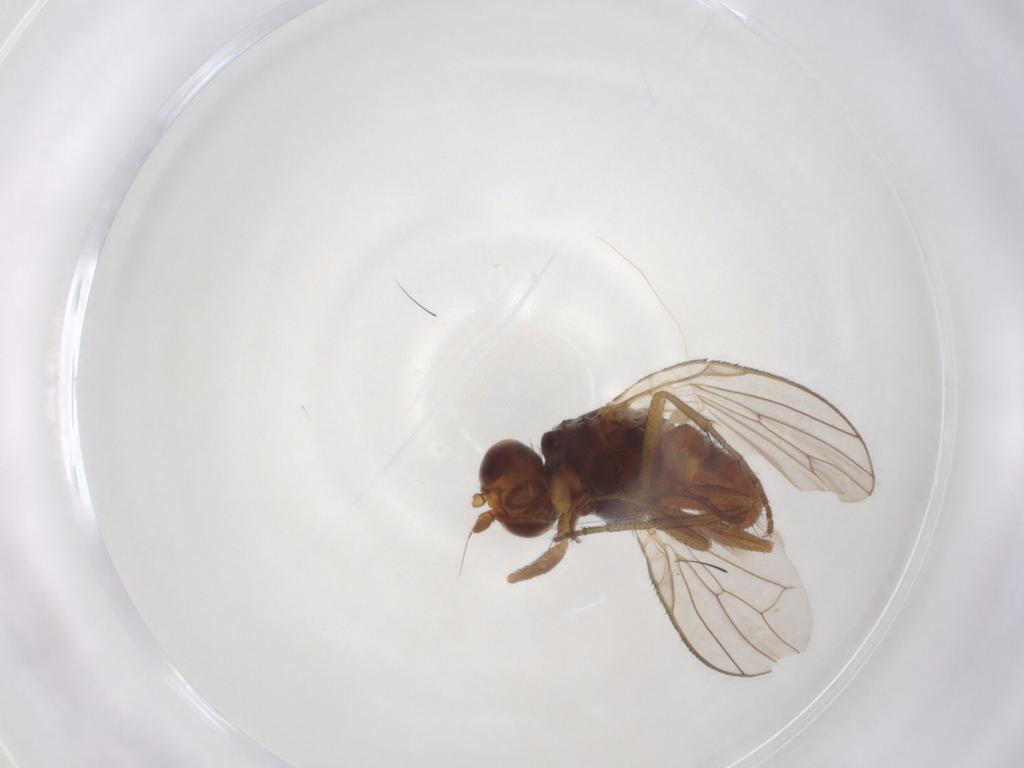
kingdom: Animalia
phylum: Arthropoda
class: Insecta
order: Diptera
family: Heleomyzidae
